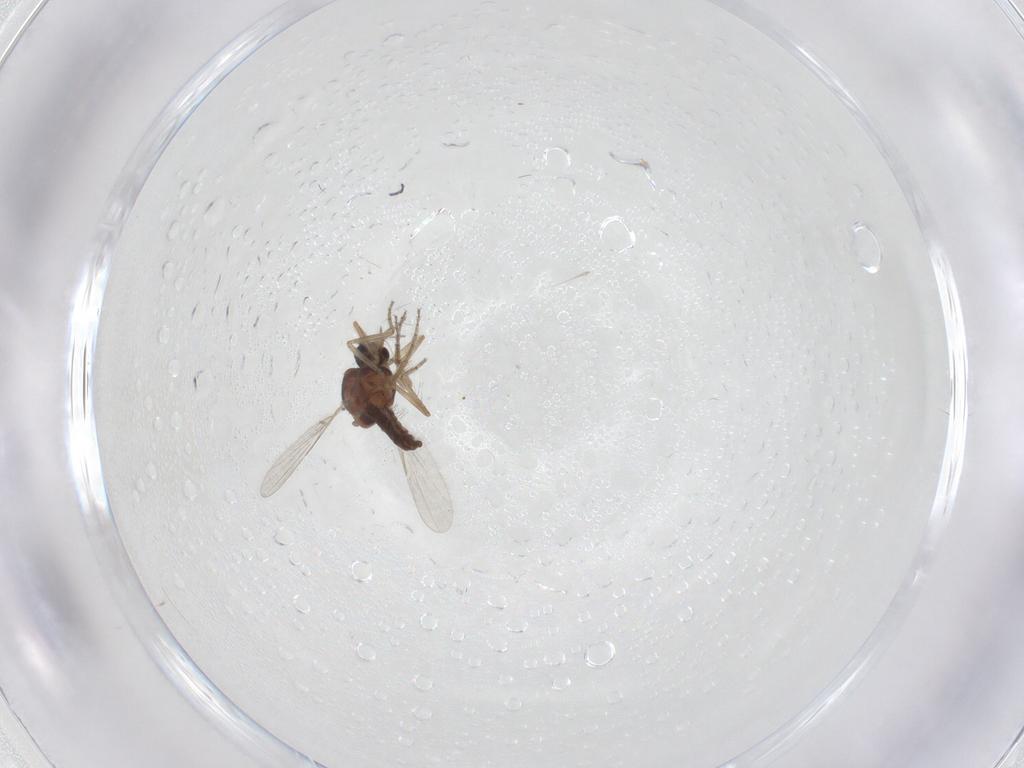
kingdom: Animalia
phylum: Arthropoda
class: Insecta
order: Diptera
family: Ceratopogonidae
